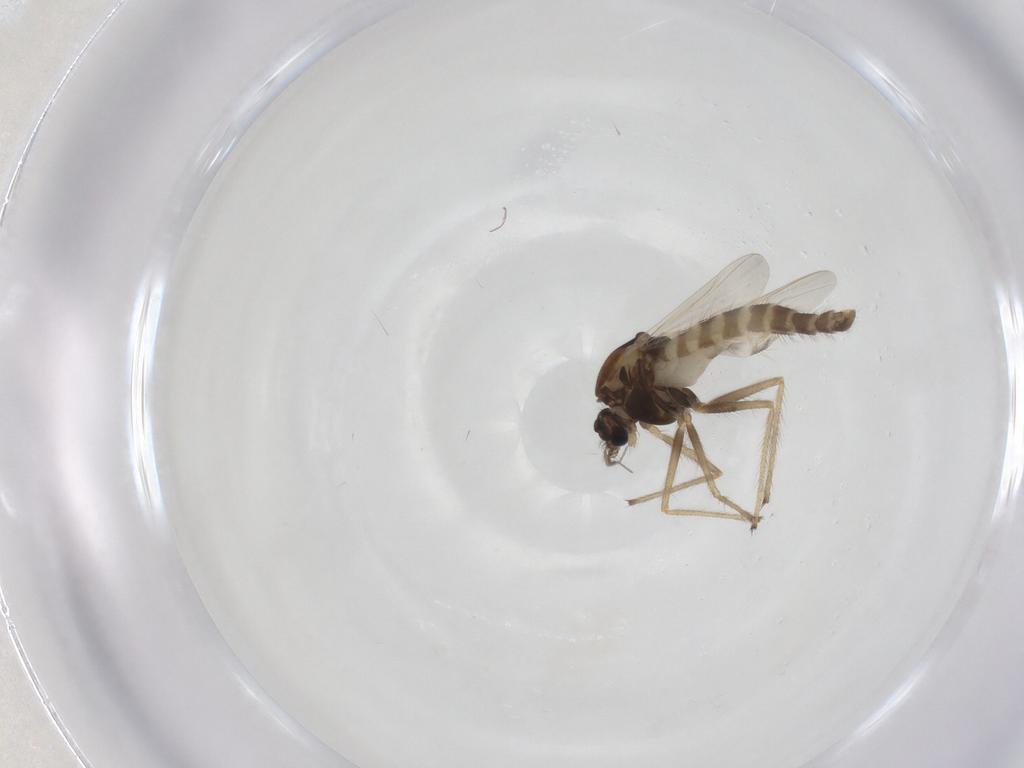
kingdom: Animalia
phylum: Arthropoda
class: Insecta
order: Diptera
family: Chironomidae
